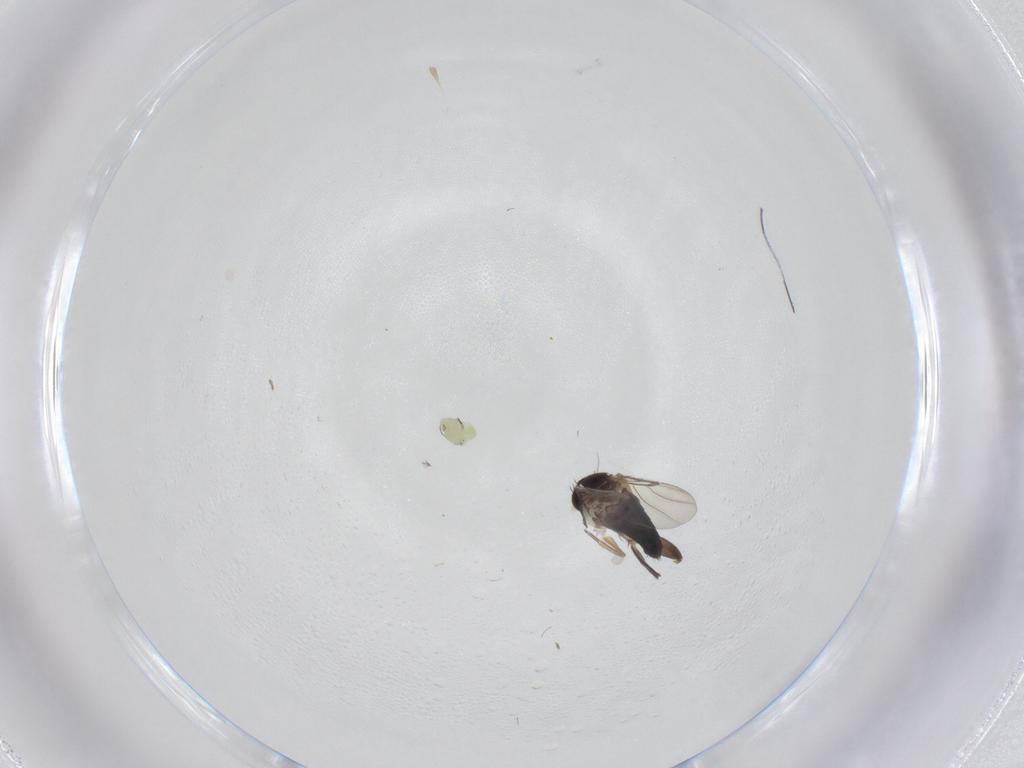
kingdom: Animalia
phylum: Arthropoda
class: Insecta
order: Diptera
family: Phoridae
